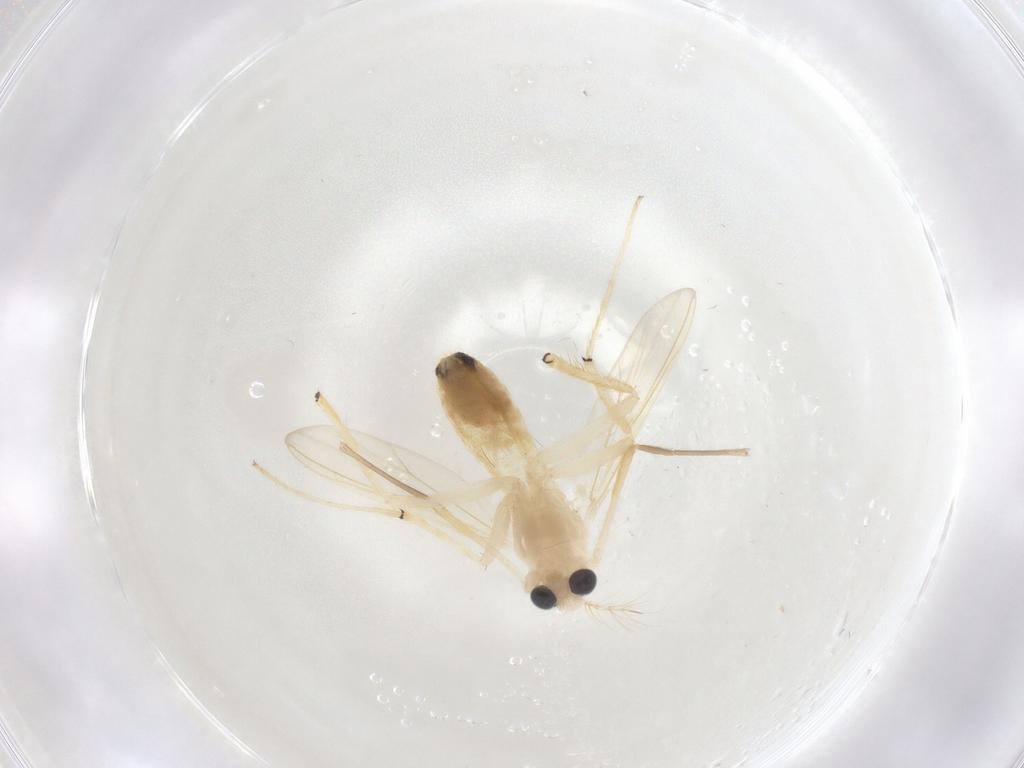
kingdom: Animalia
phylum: Arthropoda
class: Insecta
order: Diptera
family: Chironomidae
